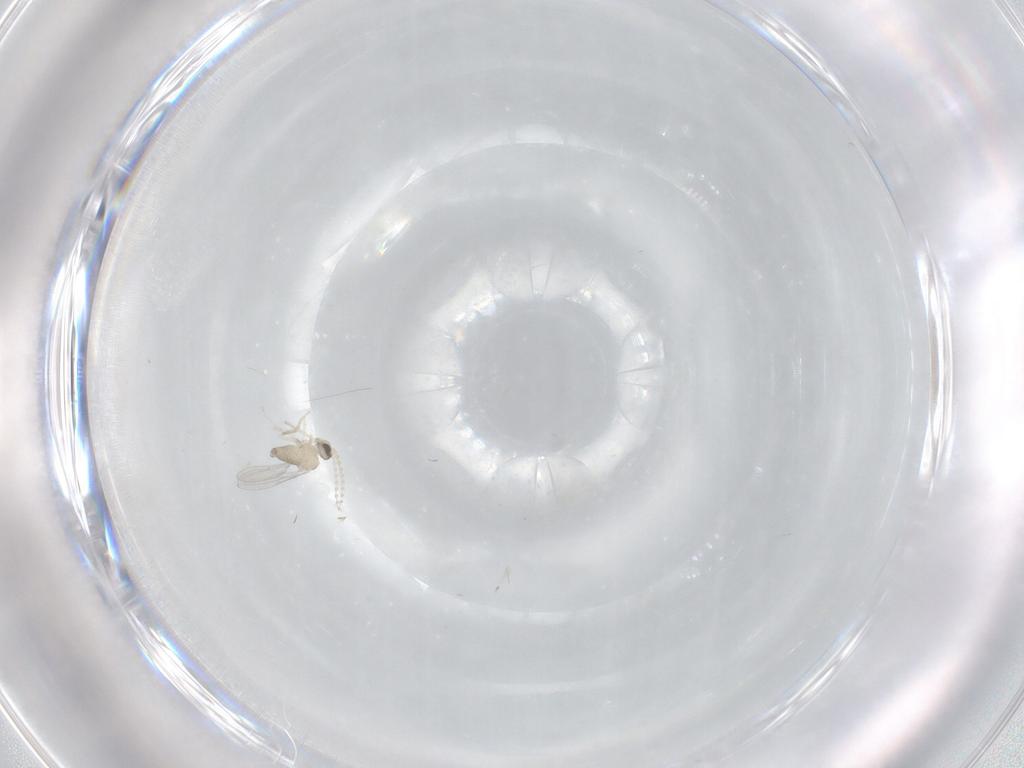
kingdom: Animalia
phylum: Arthropoda
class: Insecta
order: Diptera
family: Cecidomyiidae
